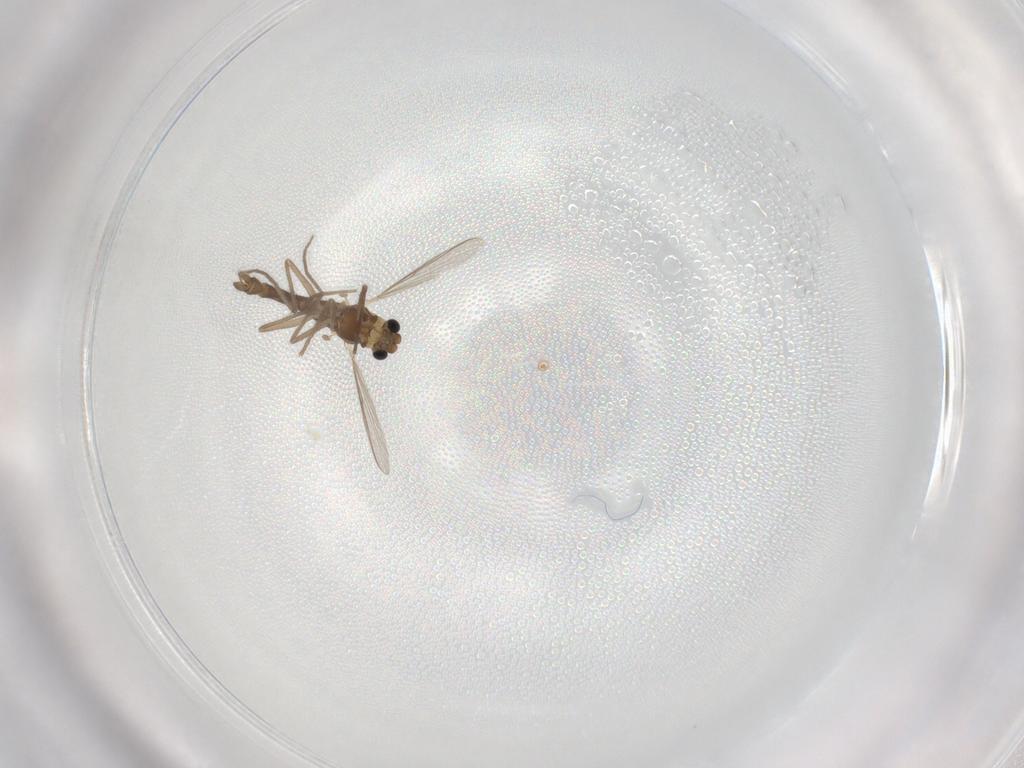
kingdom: Animalia
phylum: Arthropoda
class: Insecta
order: Diptera
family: Chironomidae
